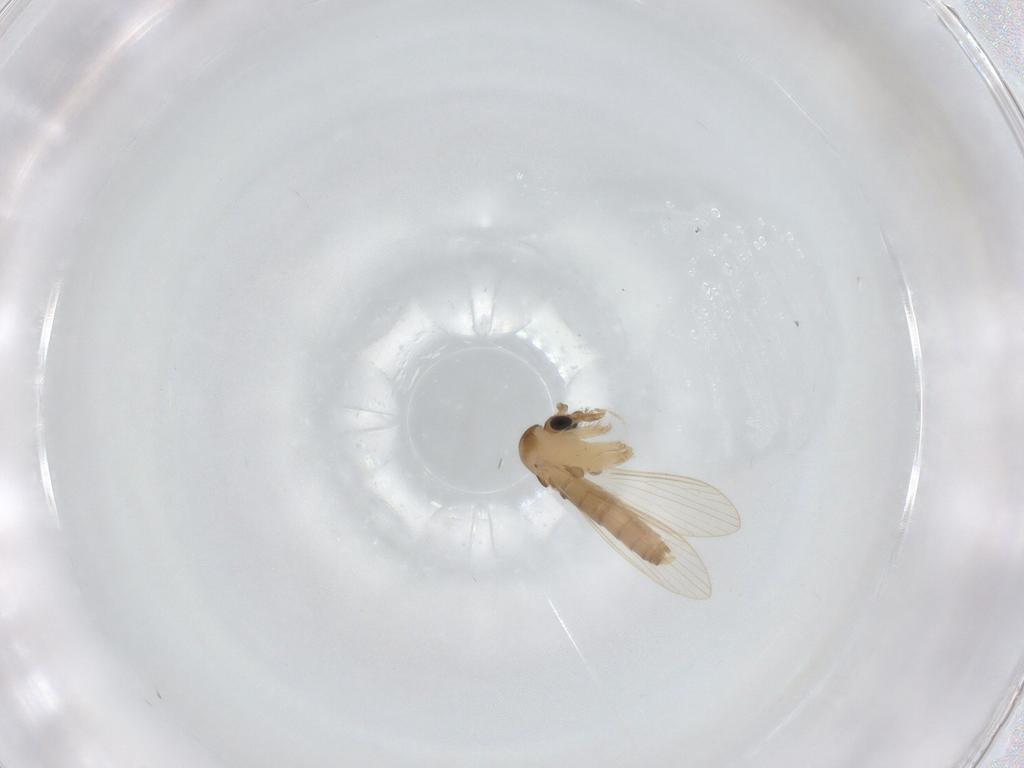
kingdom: Animalia
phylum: Arthropoda
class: Insecta
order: Diptera
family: Psychodidae
